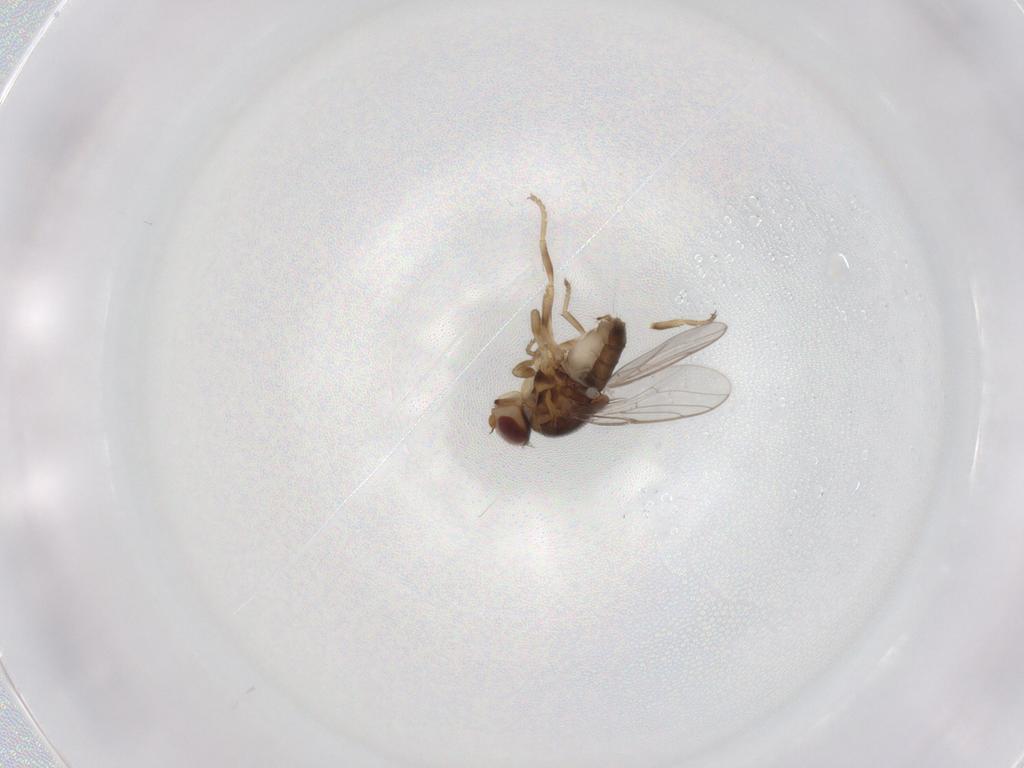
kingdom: Animalia
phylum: Arthropoda
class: Insecta
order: Diptera
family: Chloropidae
